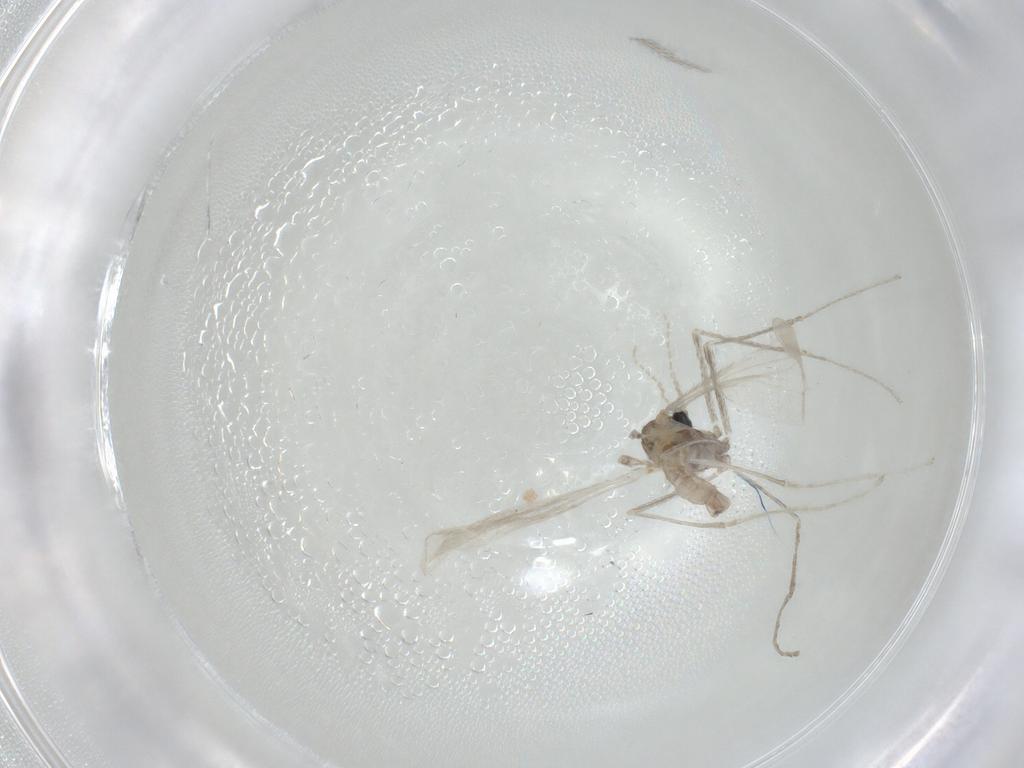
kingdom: Animalia
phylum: Arthropoda
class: Insecta
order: Diptera
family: Cecidomyiidae
